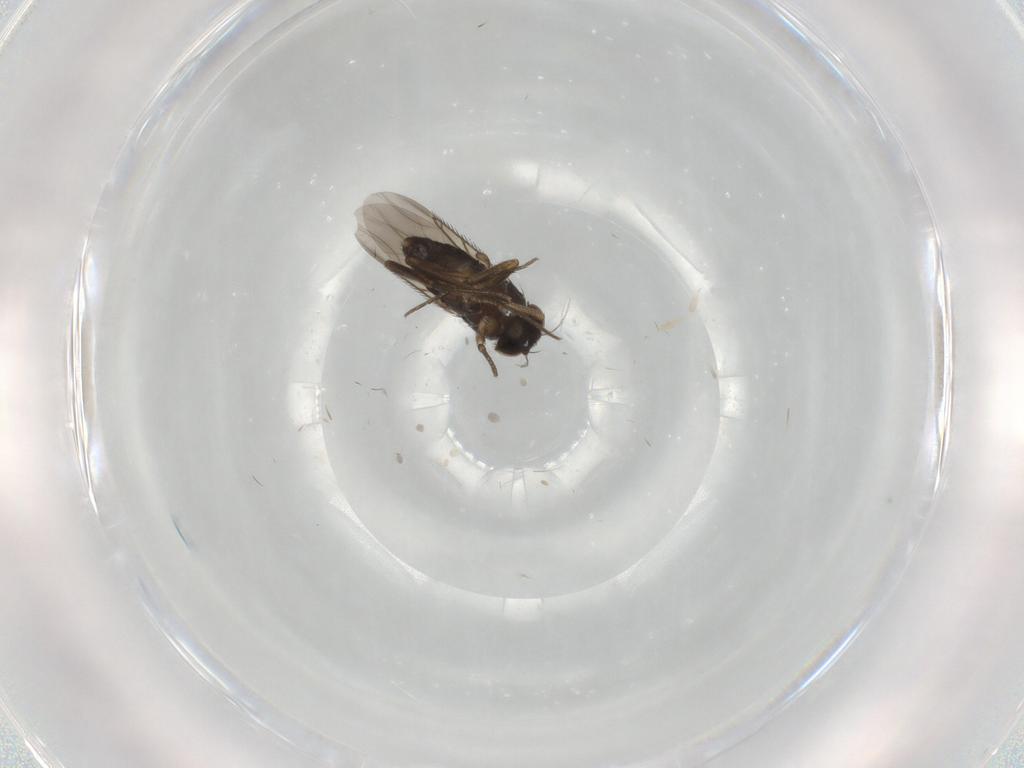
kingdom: Animalia
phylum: Arthropoda
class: Insecta
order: Diptera
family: Phoridae
